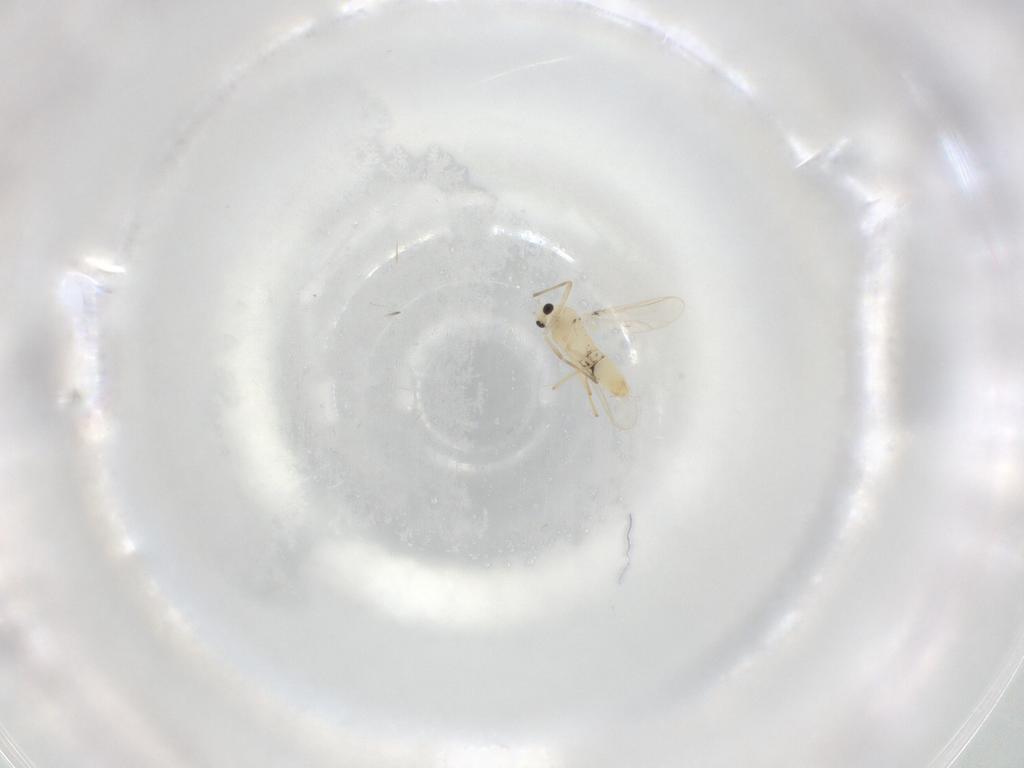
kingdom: Animalia
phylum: Arthropoda
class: Insecta
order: Diptera
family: Chironomidae
